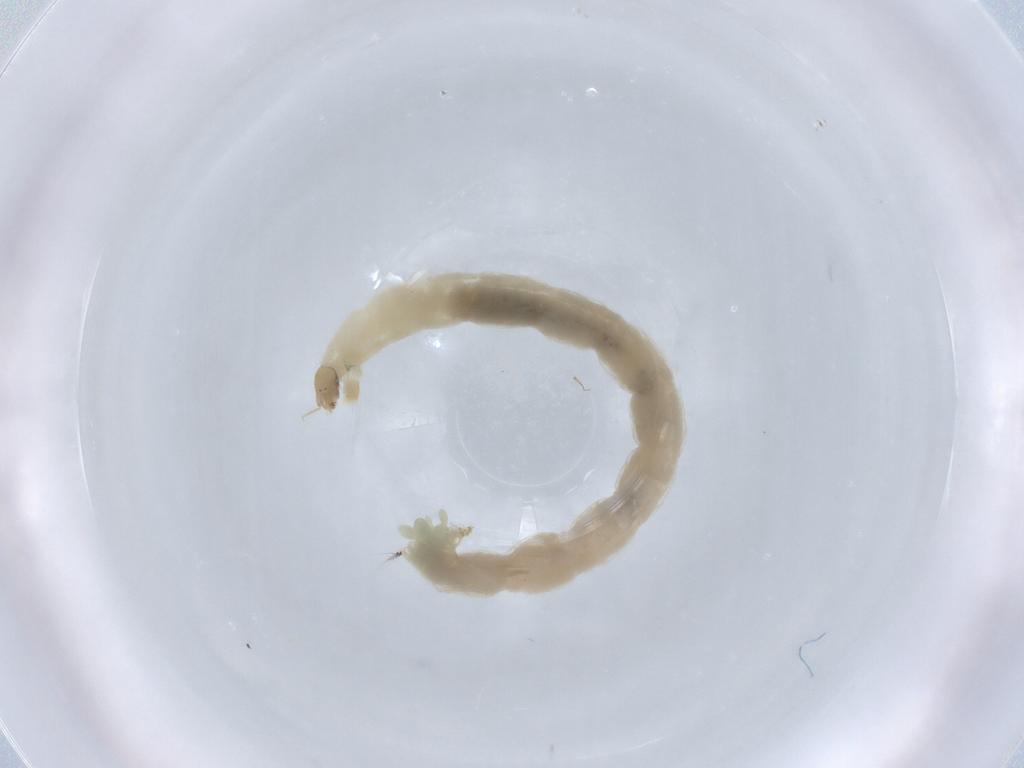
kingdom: Animalia
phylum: Arthropoda
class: Insecta
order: Diptera
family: Chironomidae
